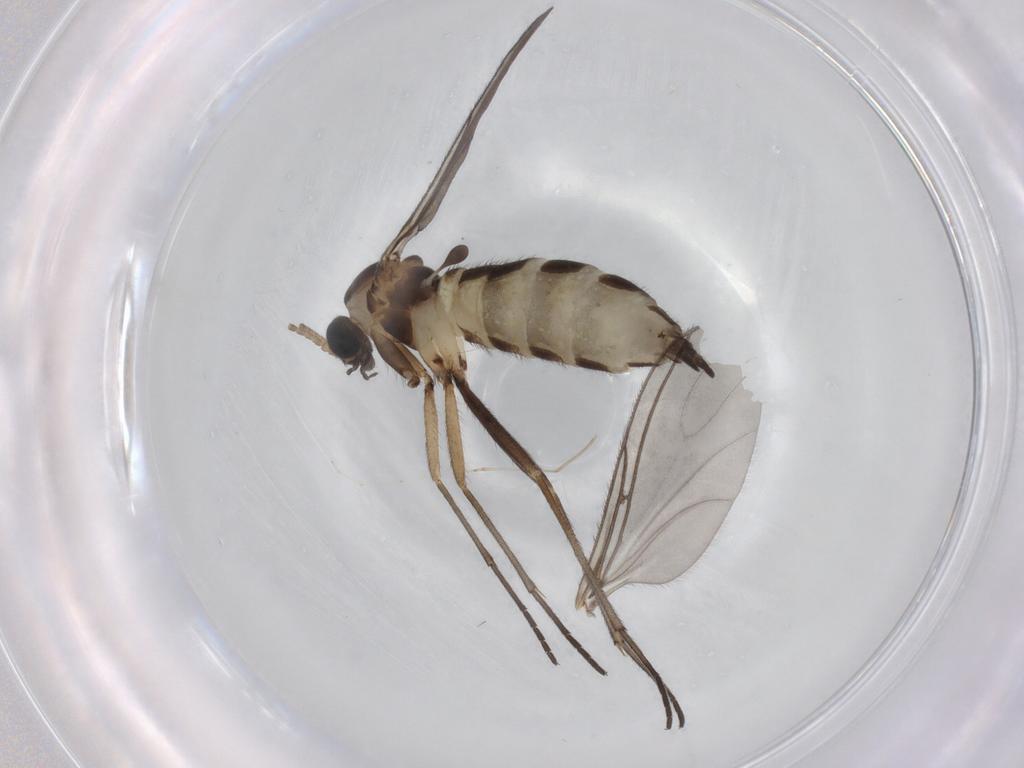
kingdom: Animalia
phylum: Arthropoda
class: Insecta
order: Diptera
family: Sciaridae
